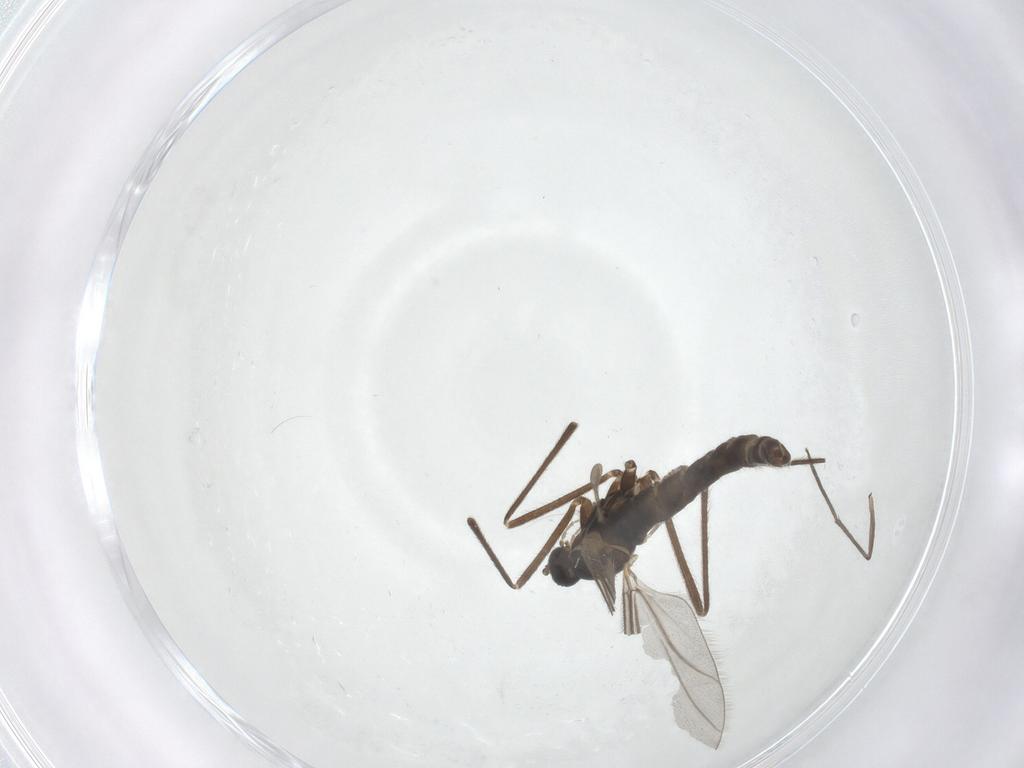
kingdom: Animalia
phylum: Arthropoda
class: Insecta
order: Diptera
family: Cecidomyiidae
